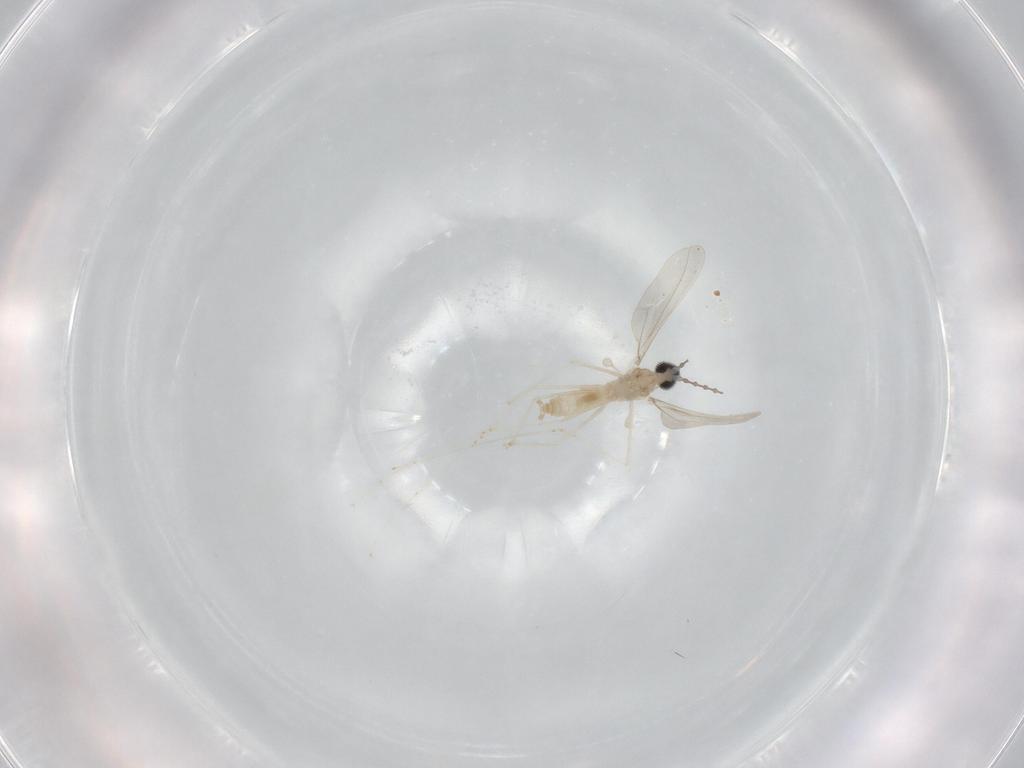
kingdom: Animalia
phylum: Arthropoda
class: Insecta
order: Diptera
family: Cecidomyiidae
